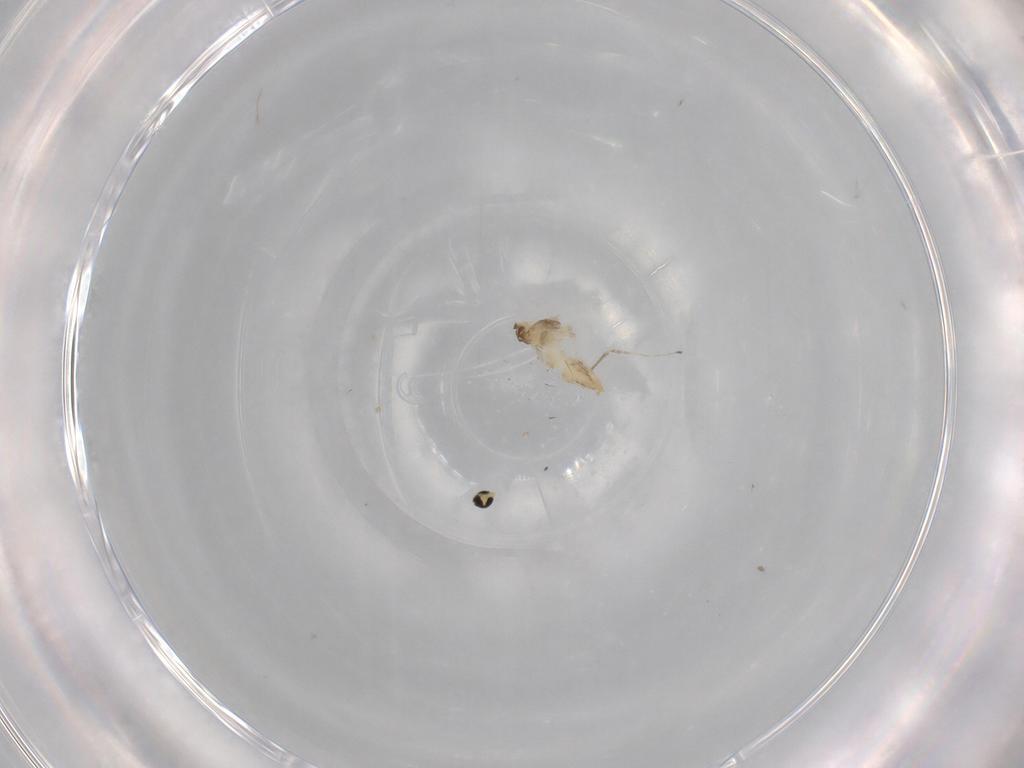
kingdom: Animalia
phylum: Arthropoda
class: Insecta
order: Diptera
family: Cecidomyiidae
